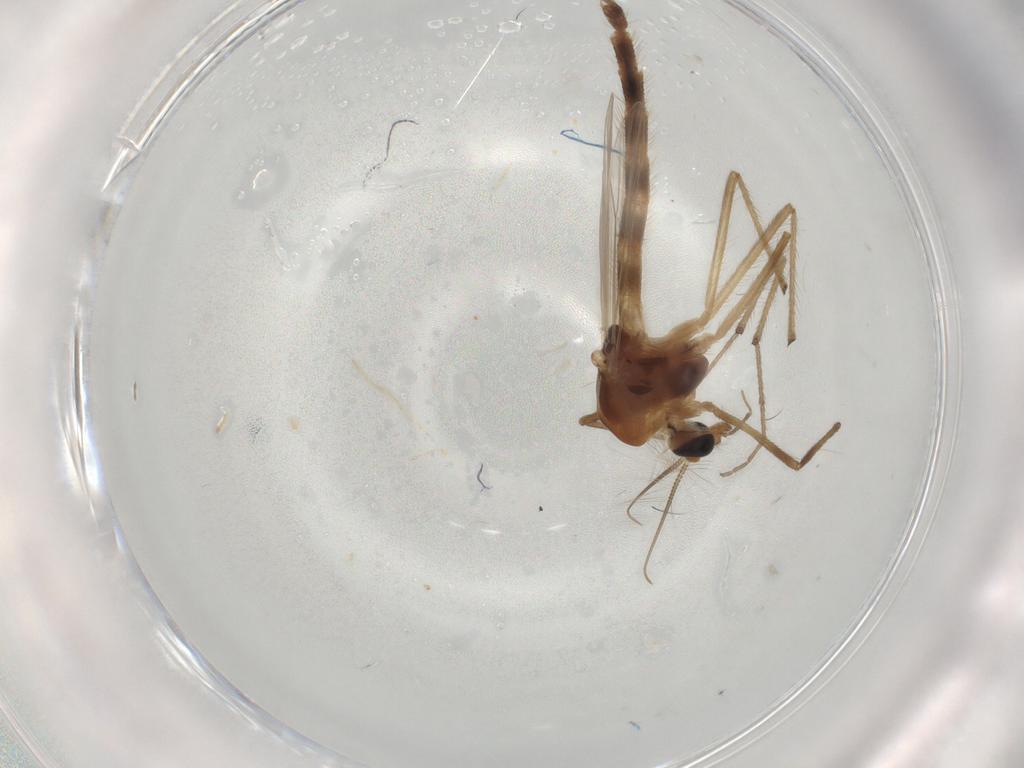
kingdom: Animalia
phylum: Arthropoda
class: Insecta
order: Diptera
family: Chironomidae
